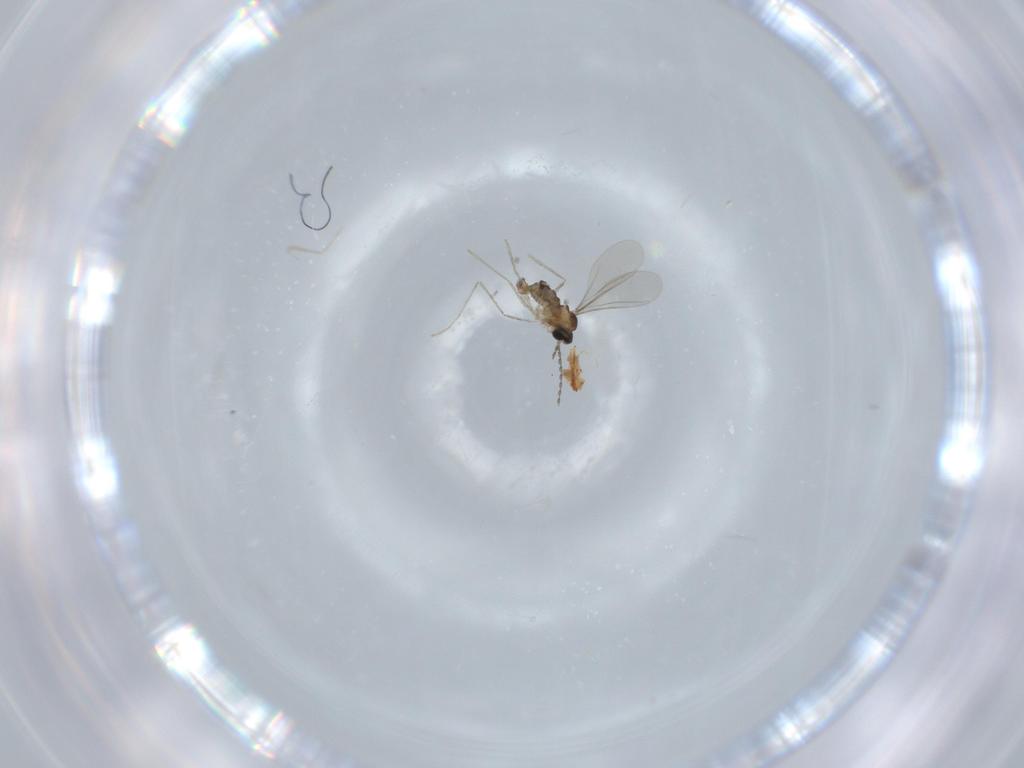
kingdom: Animalia
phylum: Arthropoda
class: Insecta
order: Diptera
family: Cecidomyiidae
